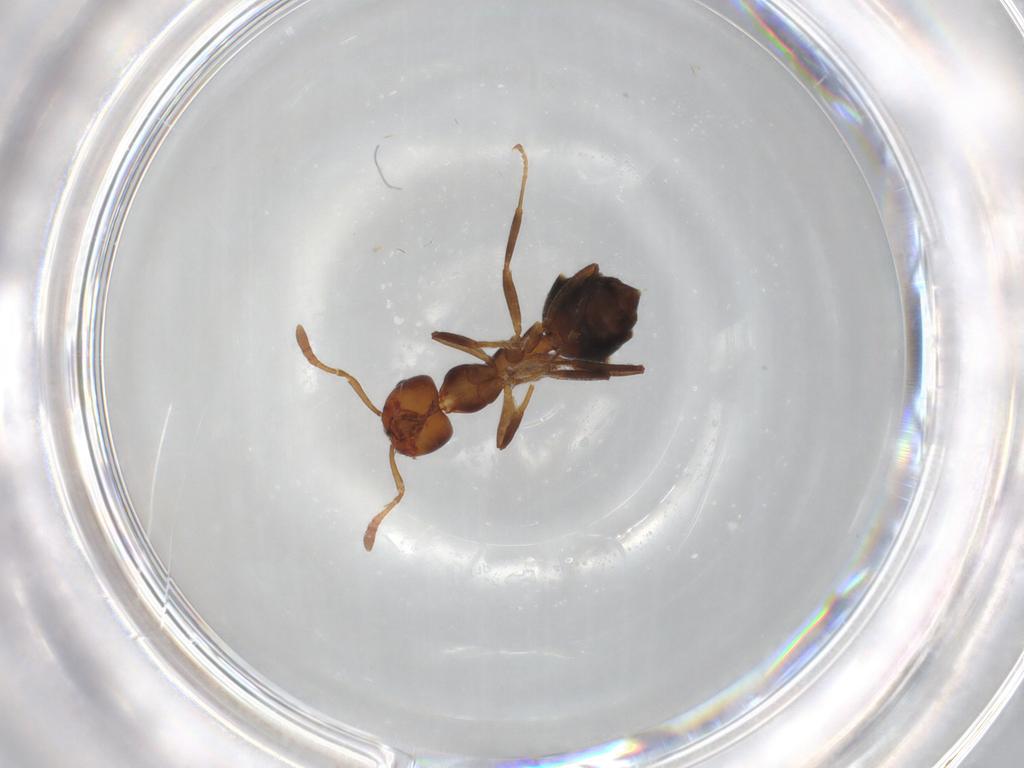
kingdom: Animalia
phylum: Arthropoda
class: Insecta
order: Hymenoptera
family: Formicidae
